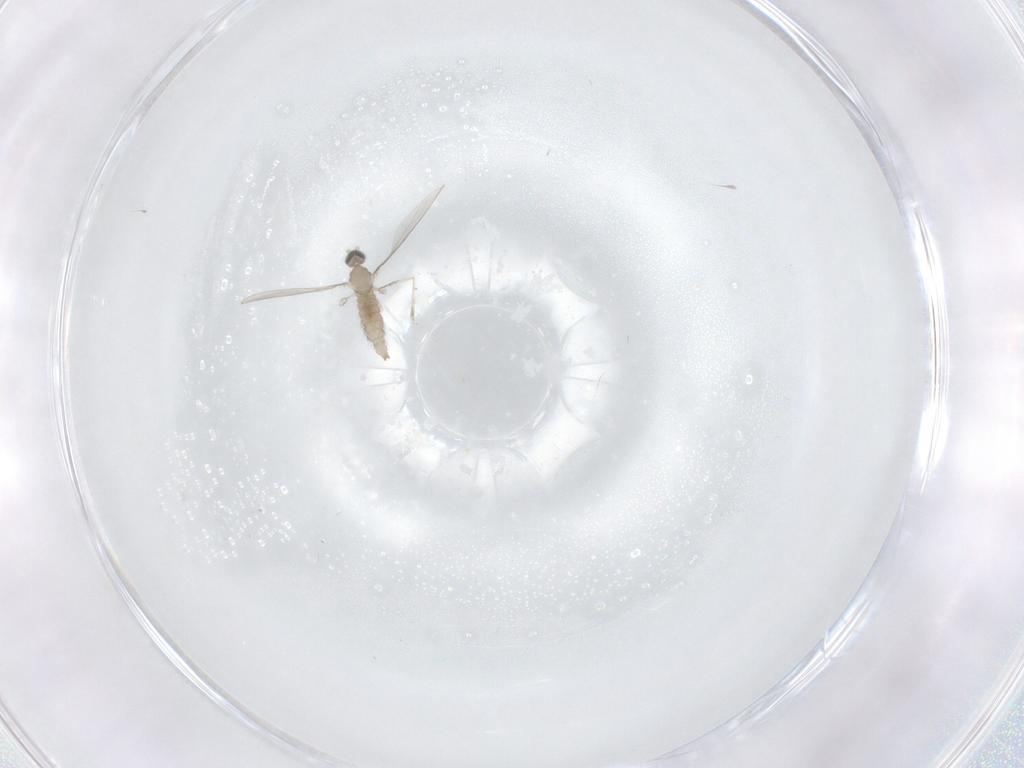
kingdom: Animalia
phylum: Arthropoda
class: Insecta
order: Diptera
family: Cecidomyiidae
